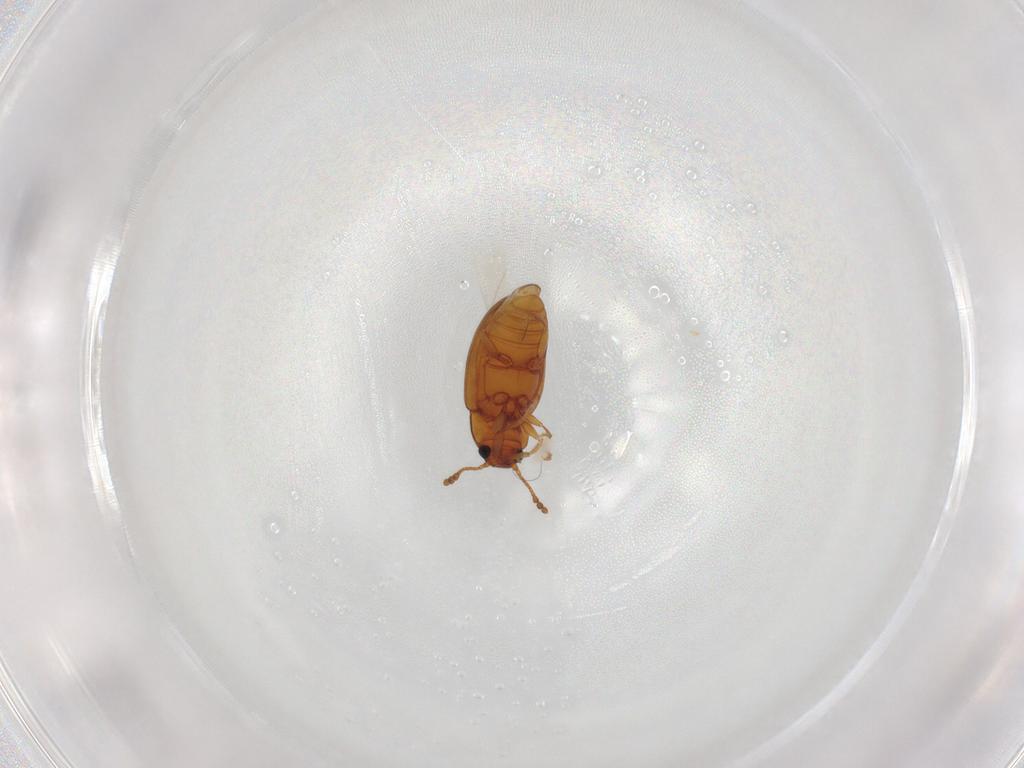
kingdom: Animalia
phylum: Arthropoda
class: Insecta
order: Coleoptera
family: Erotylidae
